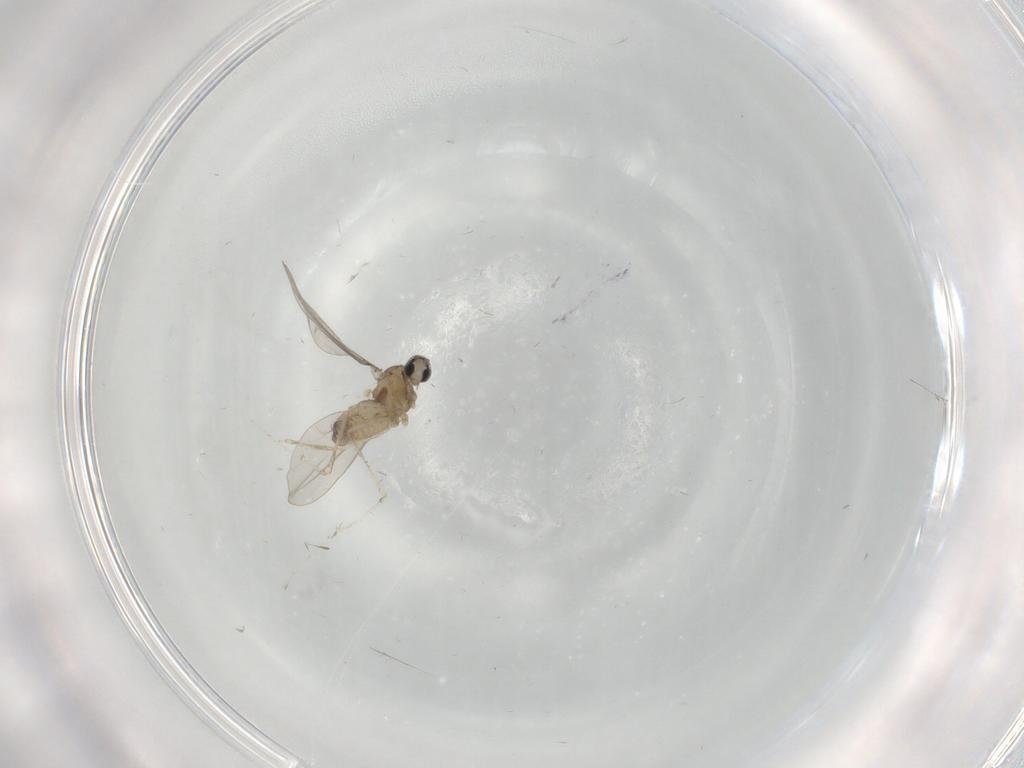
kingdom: Animalia
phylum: Arthropoda
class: Insecta
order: Diptera
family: Cecidomyiidae
